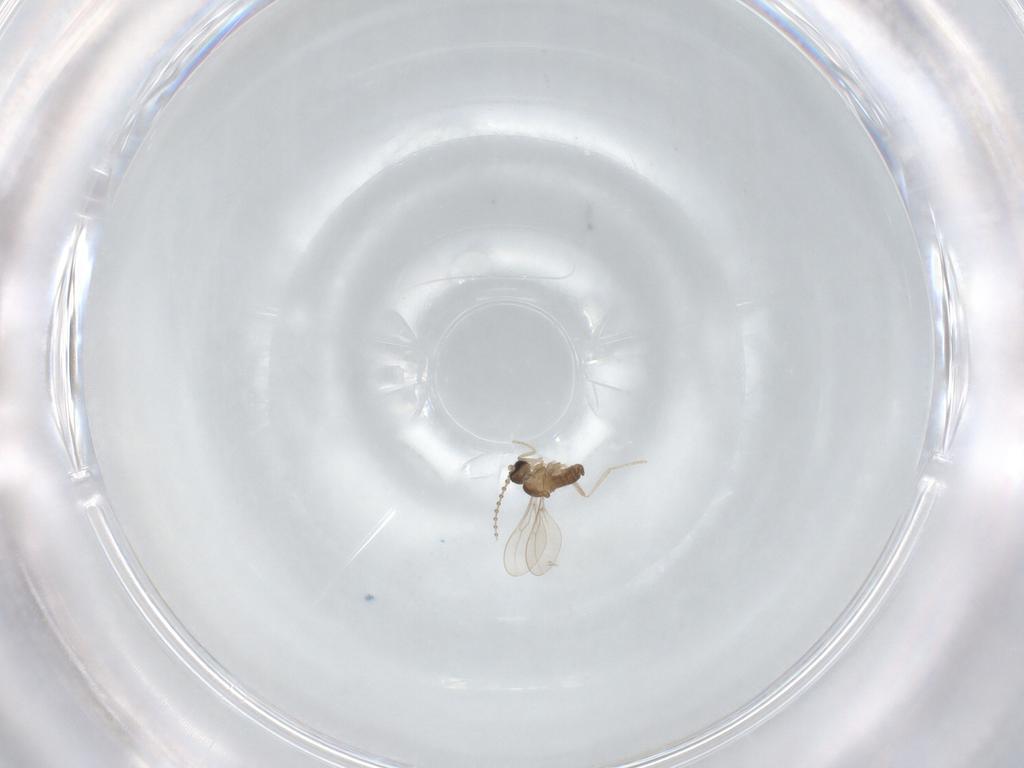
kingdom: Animalia
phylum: Arthropoda
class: Insecta
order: Diptera
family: Cecidomyiidae
